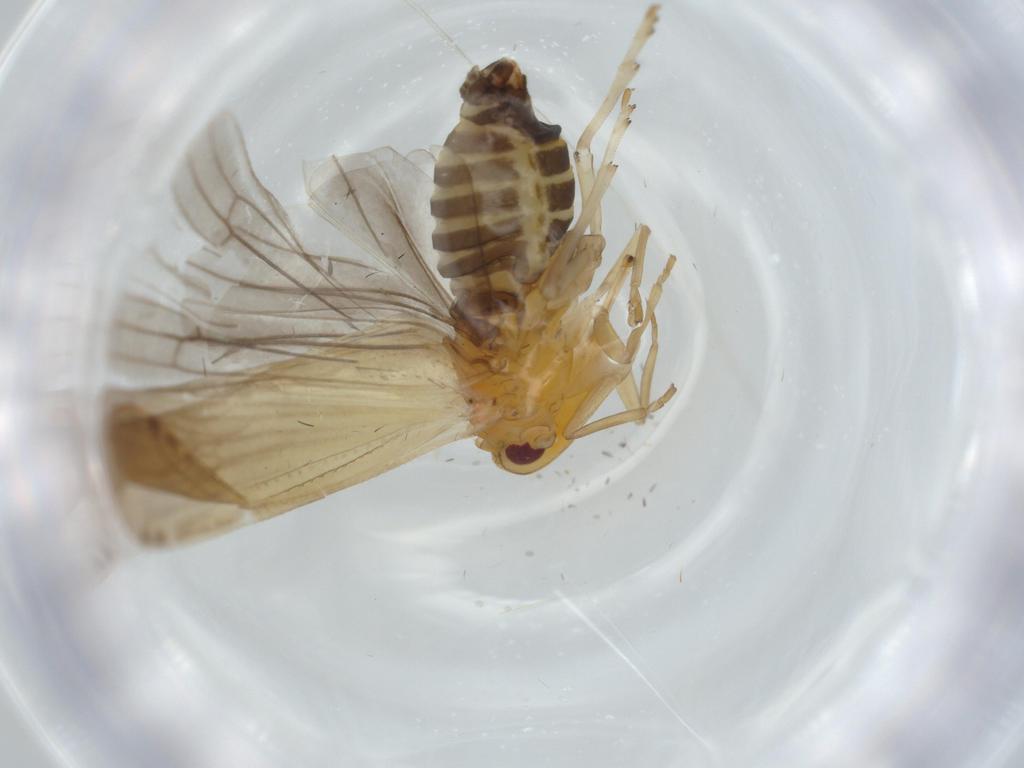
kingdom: Animalia
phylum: Arthropoda
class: Insecta
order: Hemiptera
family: Derbidae
